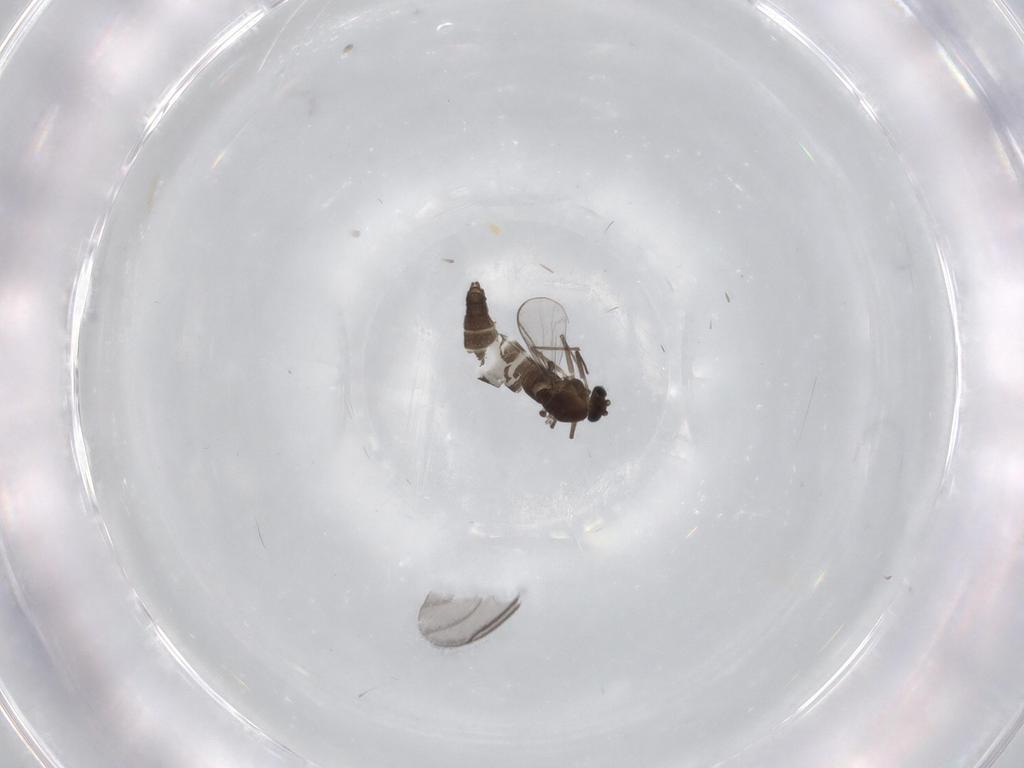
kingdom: Animalia
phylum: Arthropoda
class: Insecta
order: Diptera
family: Chironomidae
